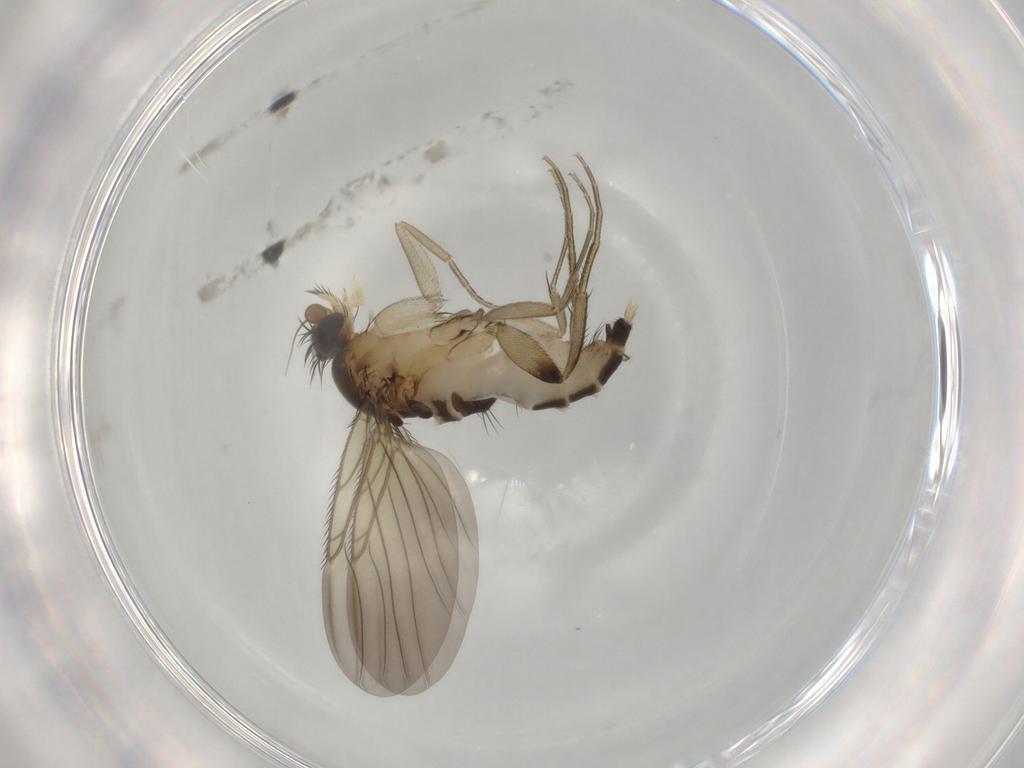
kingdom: Animalia
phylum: Arthropoda
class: Insecta
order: Diptera
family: Phoridae
